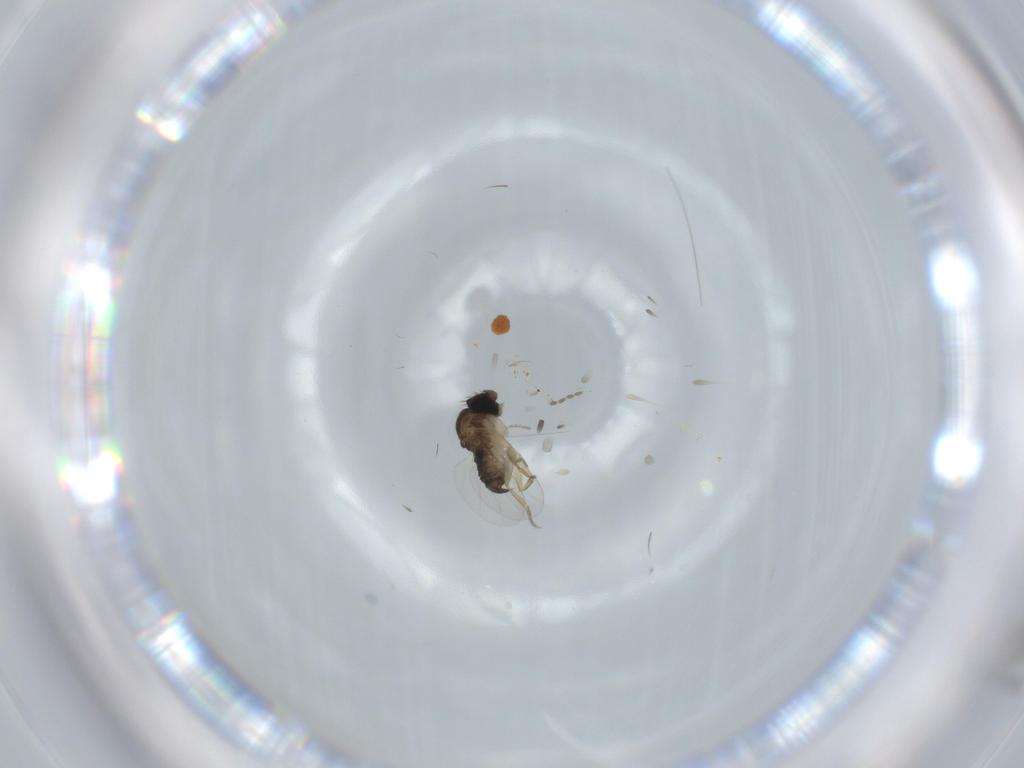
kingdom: Animalia
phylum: Arthropoda
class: Insecta
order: Diptera
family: Phoridae
